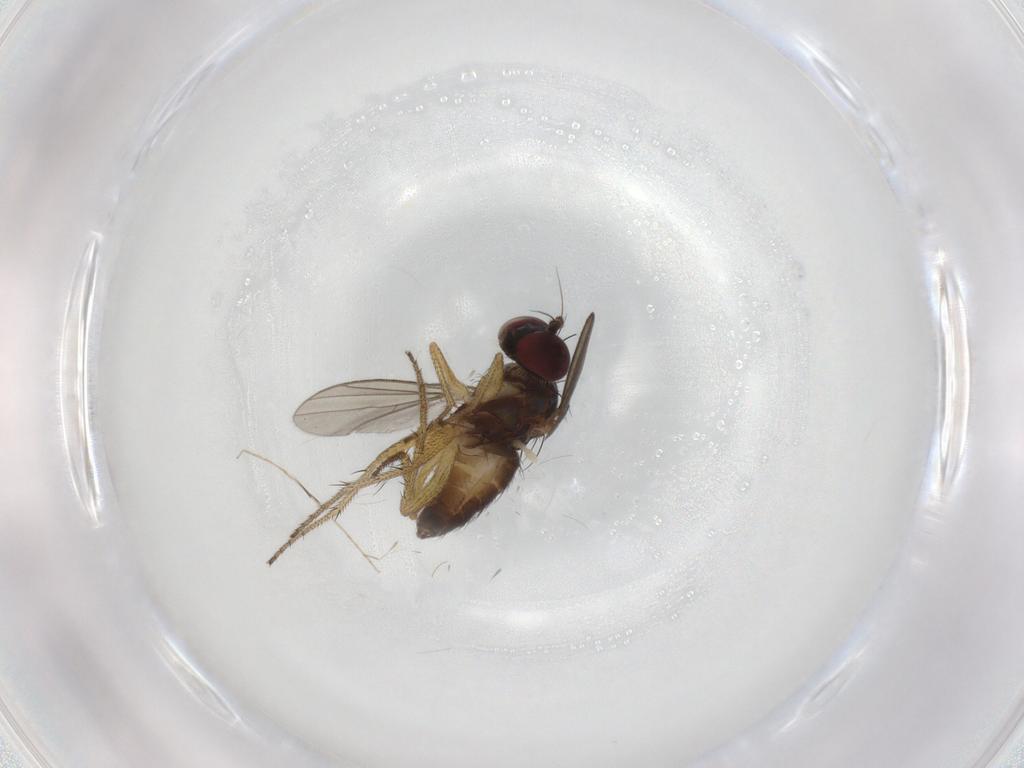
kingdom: Animalia
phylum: Arthropoda
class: Insecta
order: Diptera
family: Dolichopodidae
